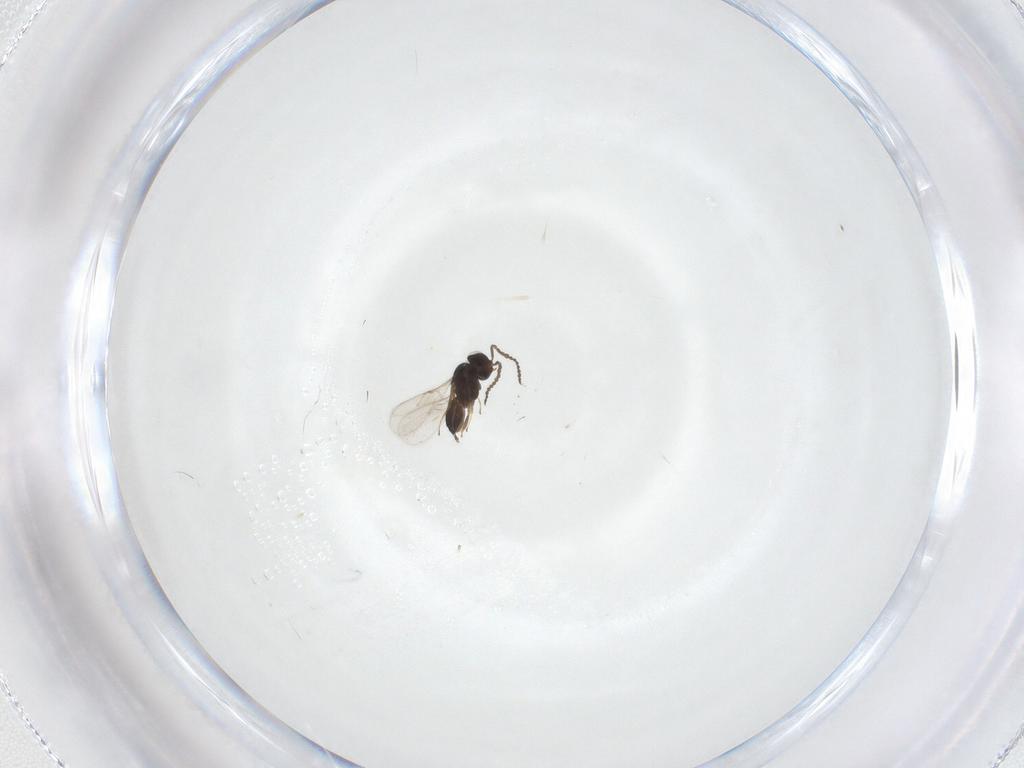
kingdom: Animalia
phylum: Arthropoda
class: Insecta
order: Hymenoptera
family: Scelionidae
